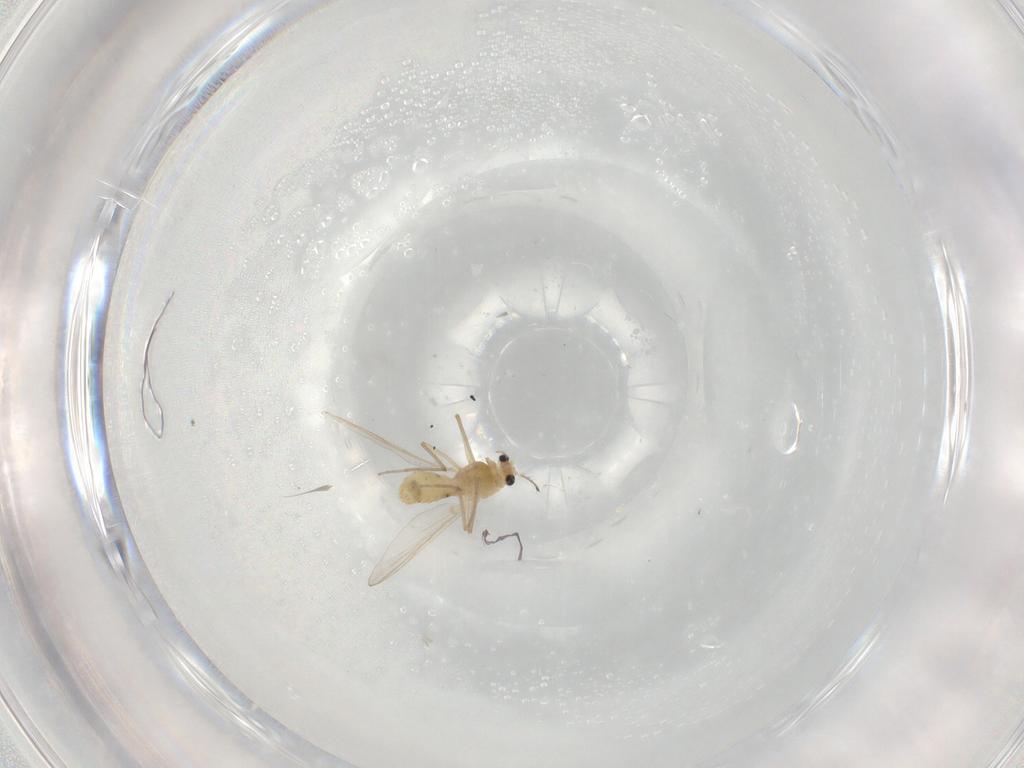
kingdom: Animalia
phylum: Arthropoda
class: Insecta
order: Diptera
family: Chironomidae
